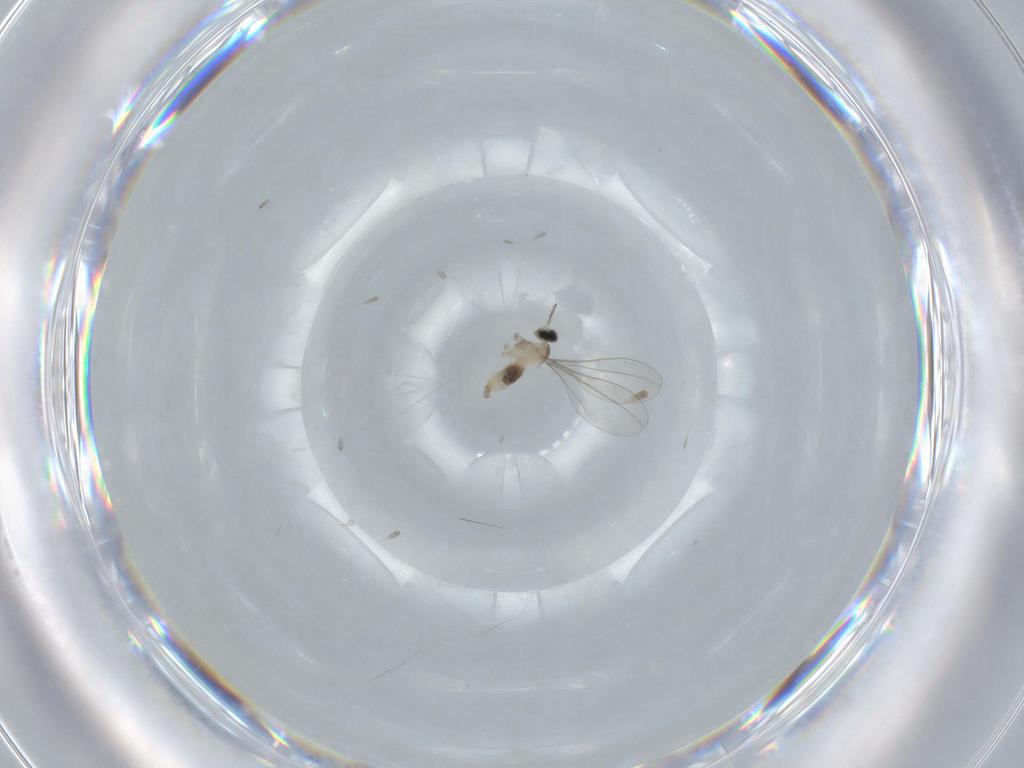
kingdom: Animalia
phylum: Arthropoda
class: Insecta
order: Diptera
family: Cecidomyiidae
